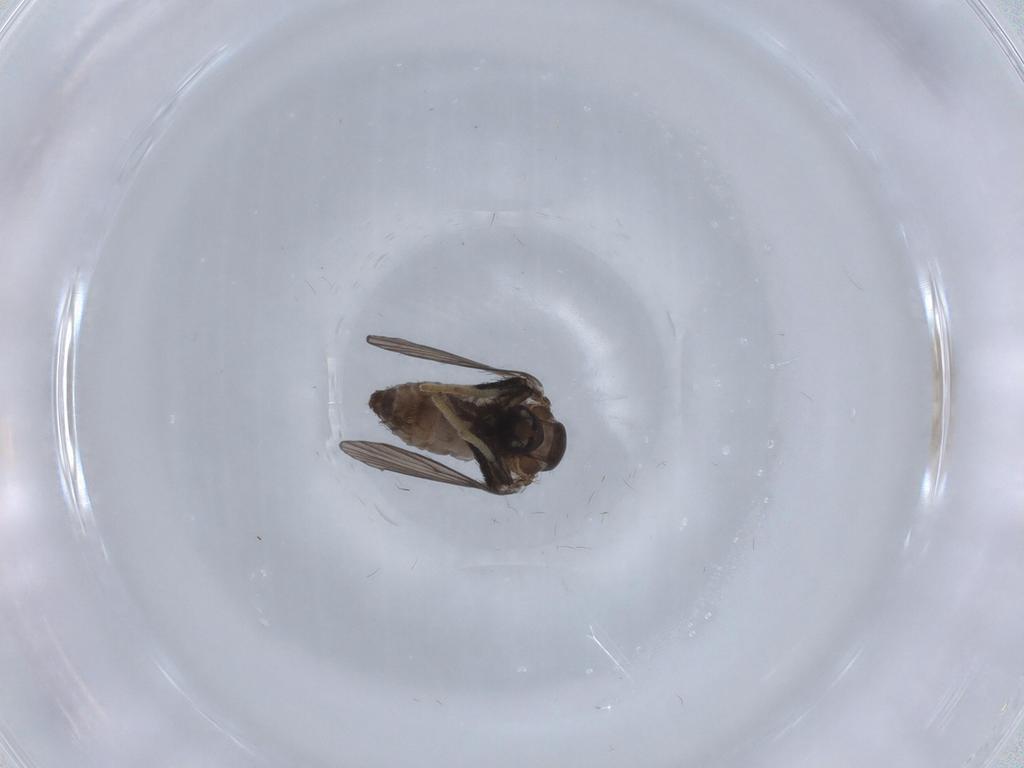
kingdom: Animalia
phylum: Arthropoda
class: Insecta
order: Diptera
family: Psychodidae
